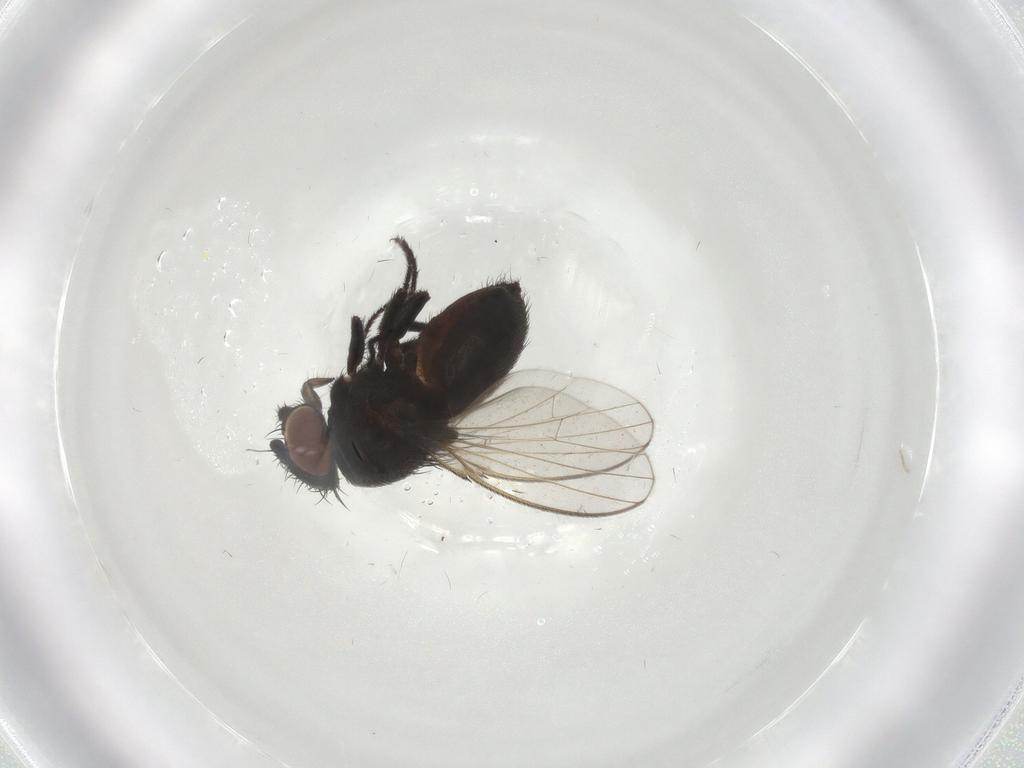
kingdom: Animalia
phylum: Arthropoda
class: Insecta
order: Diptera
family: Milichiidae
